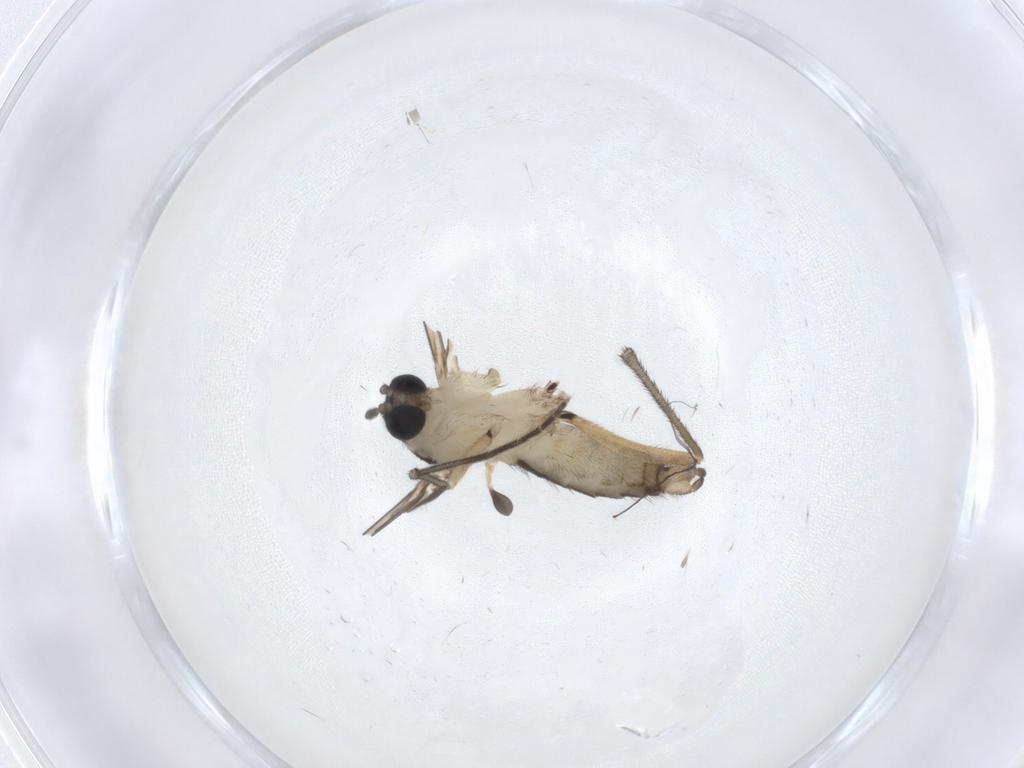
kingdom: Animalia
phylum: Arthropoda
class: Insecta
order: Diptera
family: Sciaridae
